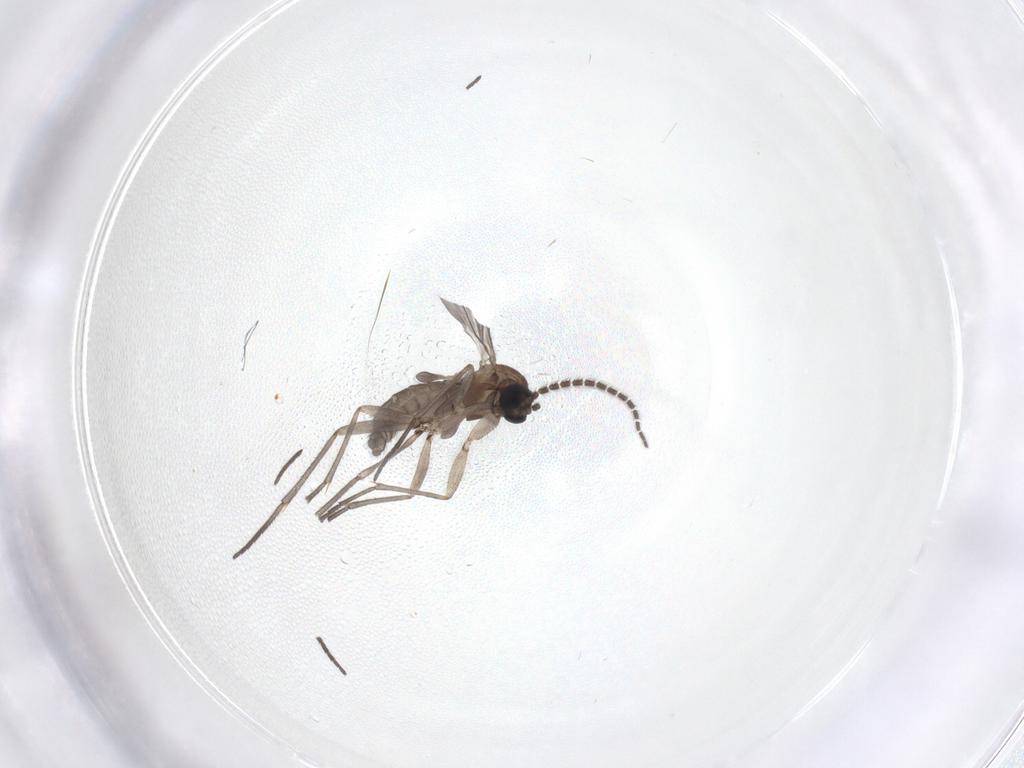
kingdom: Animalia
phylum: Arthropoda
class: Insecta
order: Diptera
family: Sciaridae
